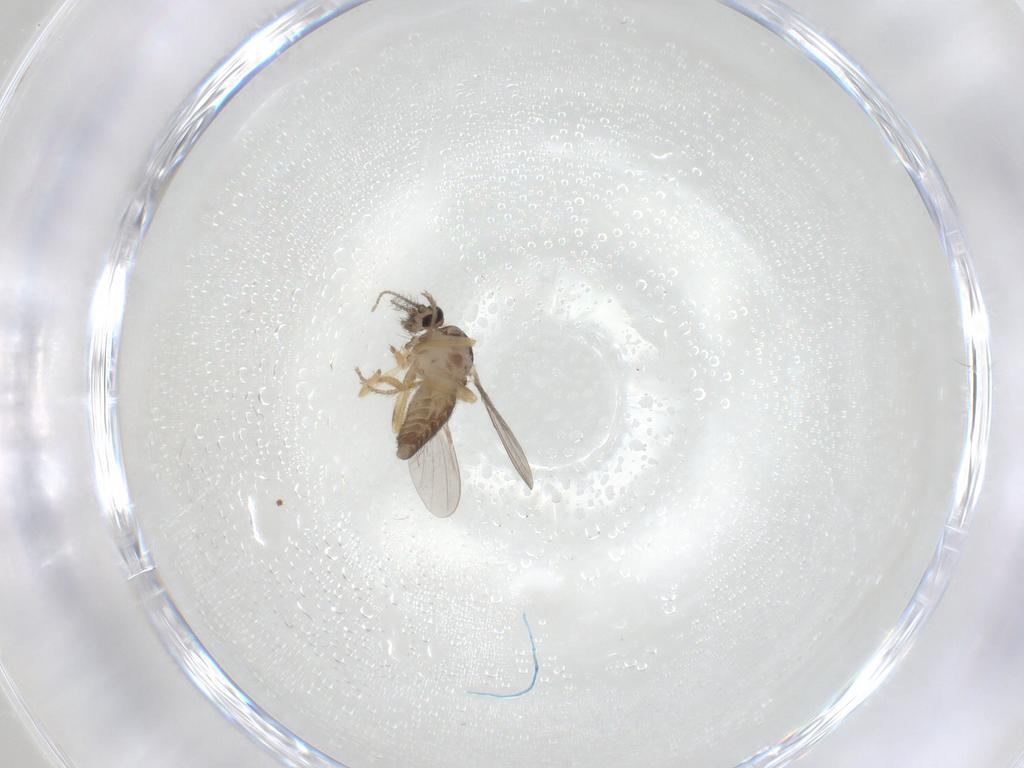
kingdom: Animalia
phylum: Arthropoda
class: Insecta
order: Diptera
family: Ceratopogonidae
